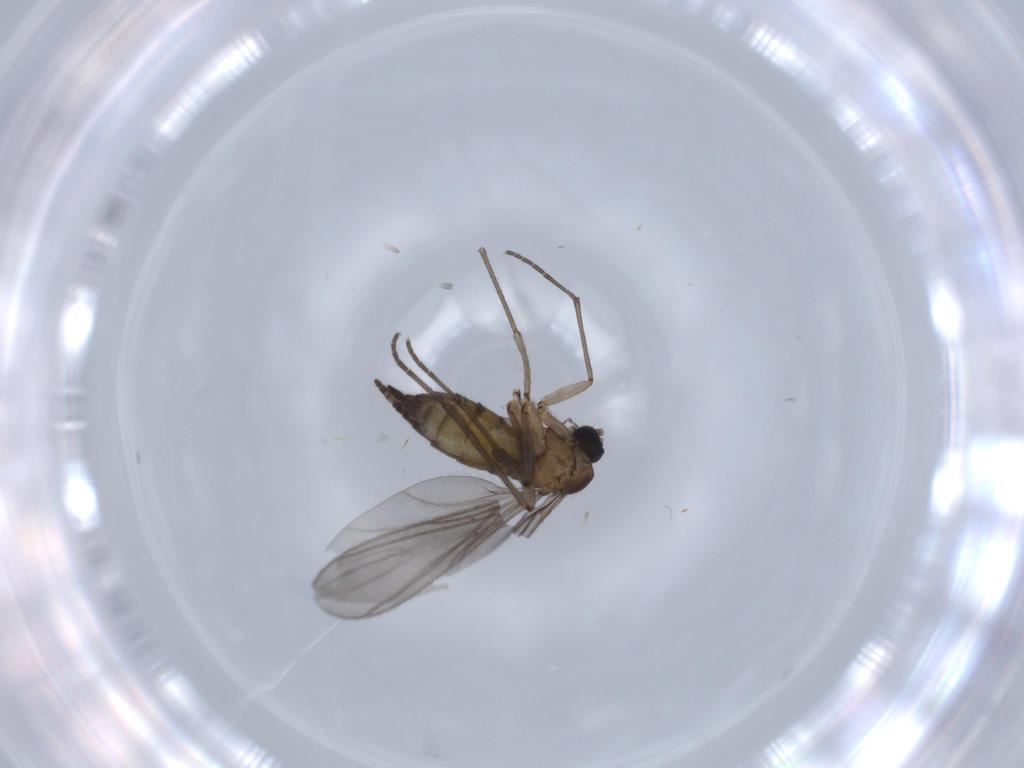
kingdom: Animalia
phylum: Arthropoda
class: Insecta
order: Diptera
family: Sciaridae
